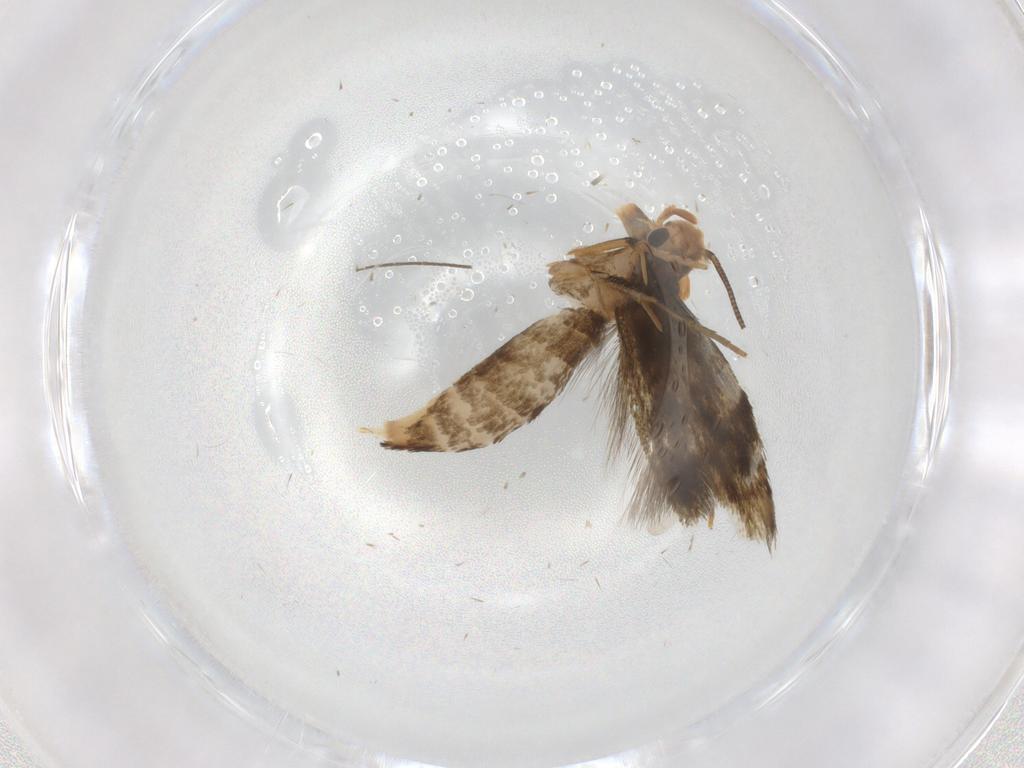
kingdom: Animalia
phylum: Arthropoda
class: Insecta
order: Lepidoptera
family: Tineidae
